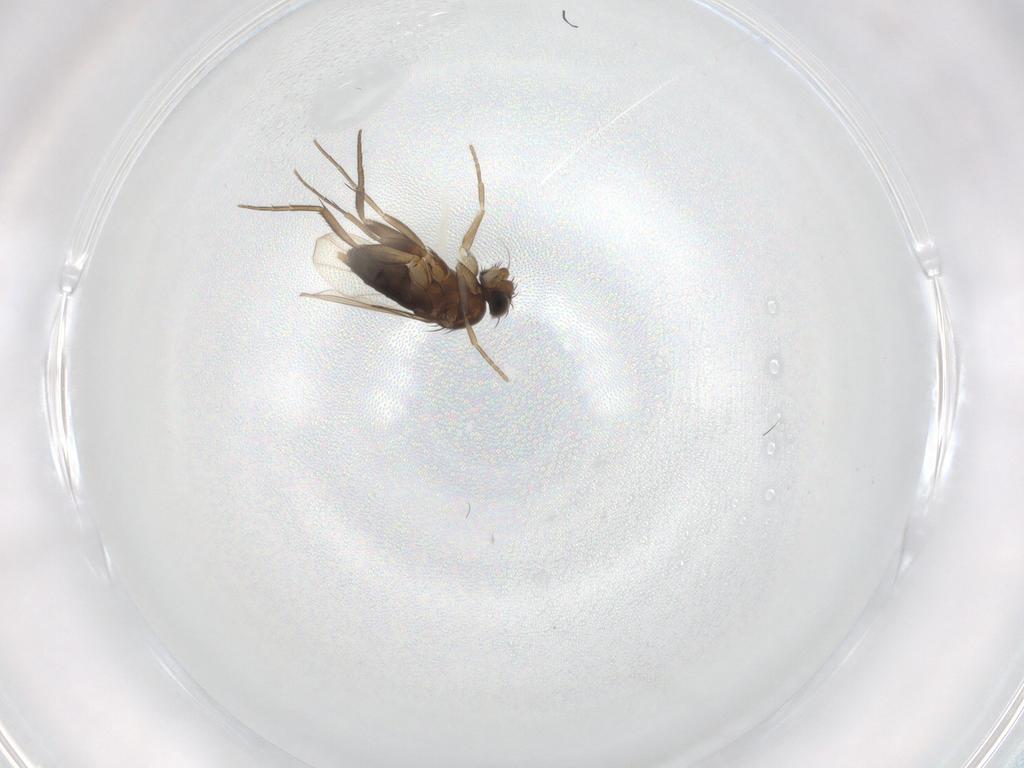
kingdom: Animalia
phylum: Arthropoda
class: Insecta
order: Diptera
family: Phoridae
